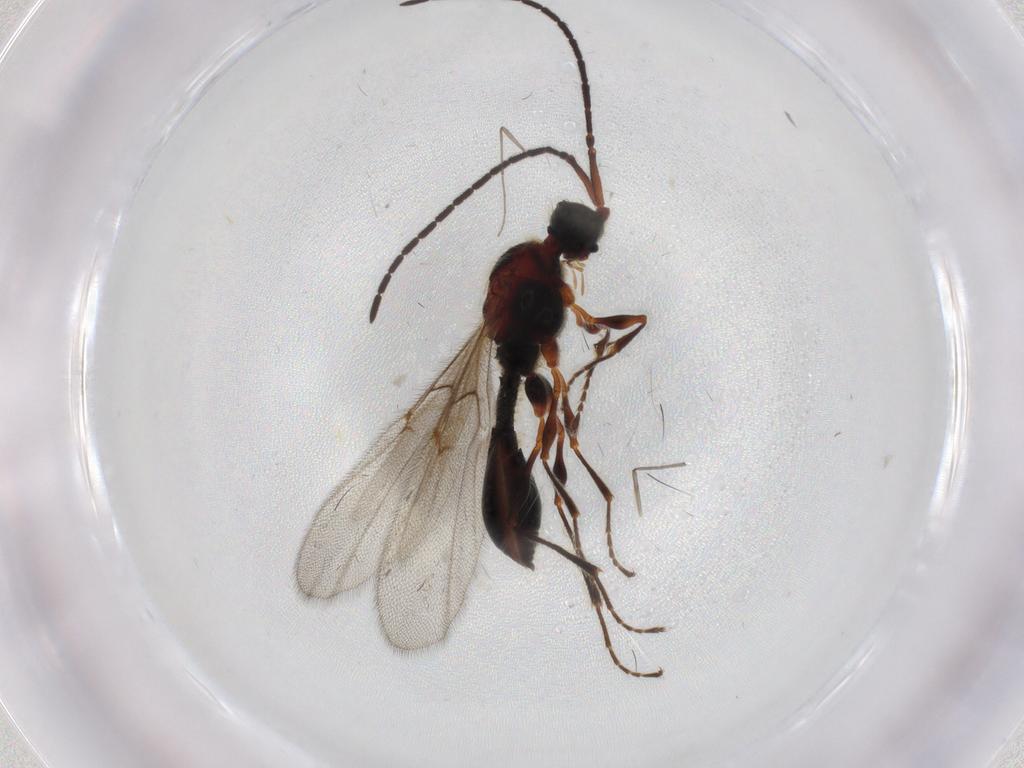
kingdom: Animalia
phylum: Arthropoda
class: Insecta
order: Hymenoptera
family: Diapriidae
